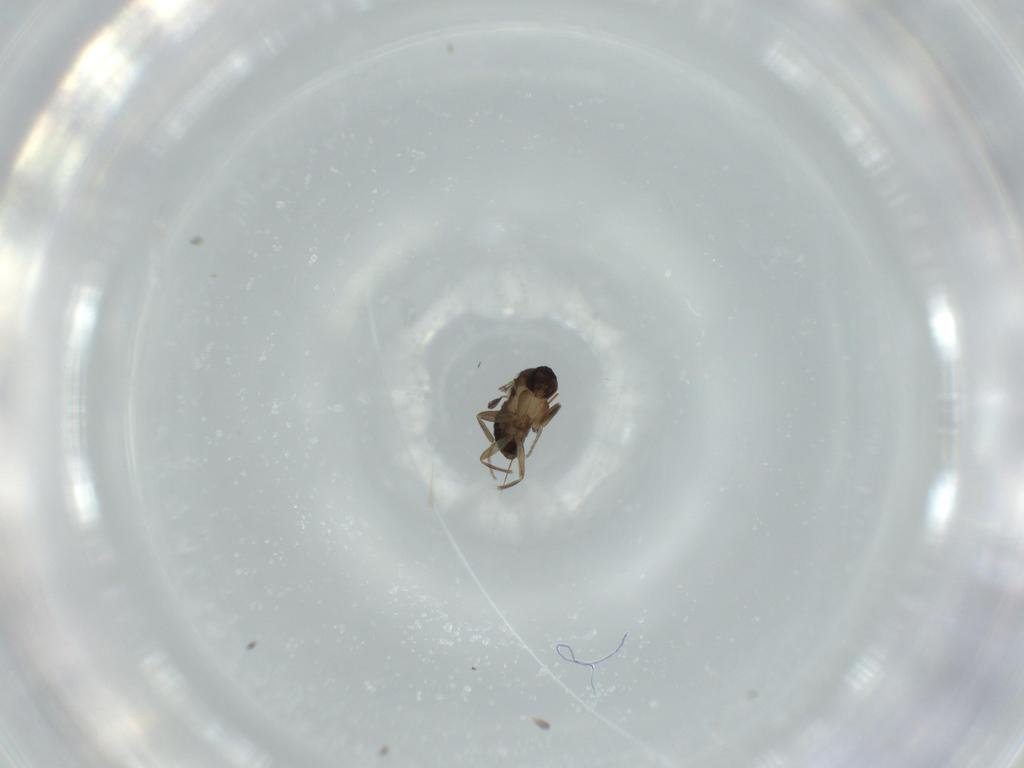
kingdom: Animalia
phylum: Arthropoda
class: Insecta
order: Diptera
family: Phoridae
